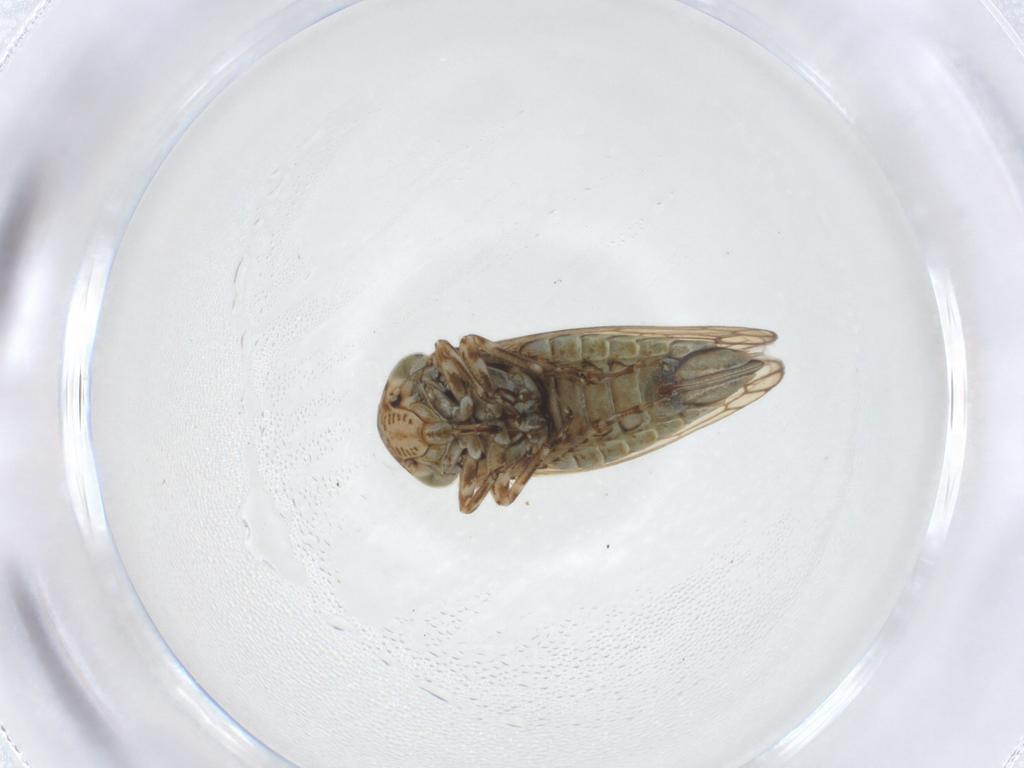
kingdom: Animalia
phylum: Arthropoda
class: Insecta
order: Hemiptera
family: Cicadellidae
